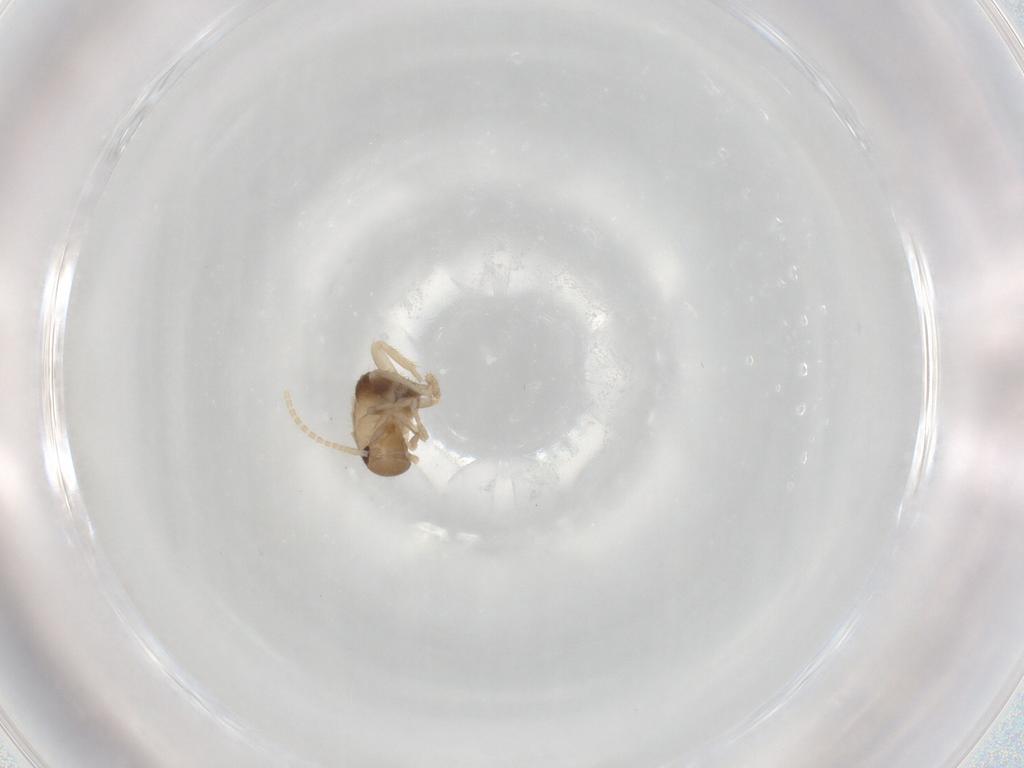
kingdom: Animalia
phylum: Arthropoda
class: Insecta
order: Blattodea
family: Ectobiidae
